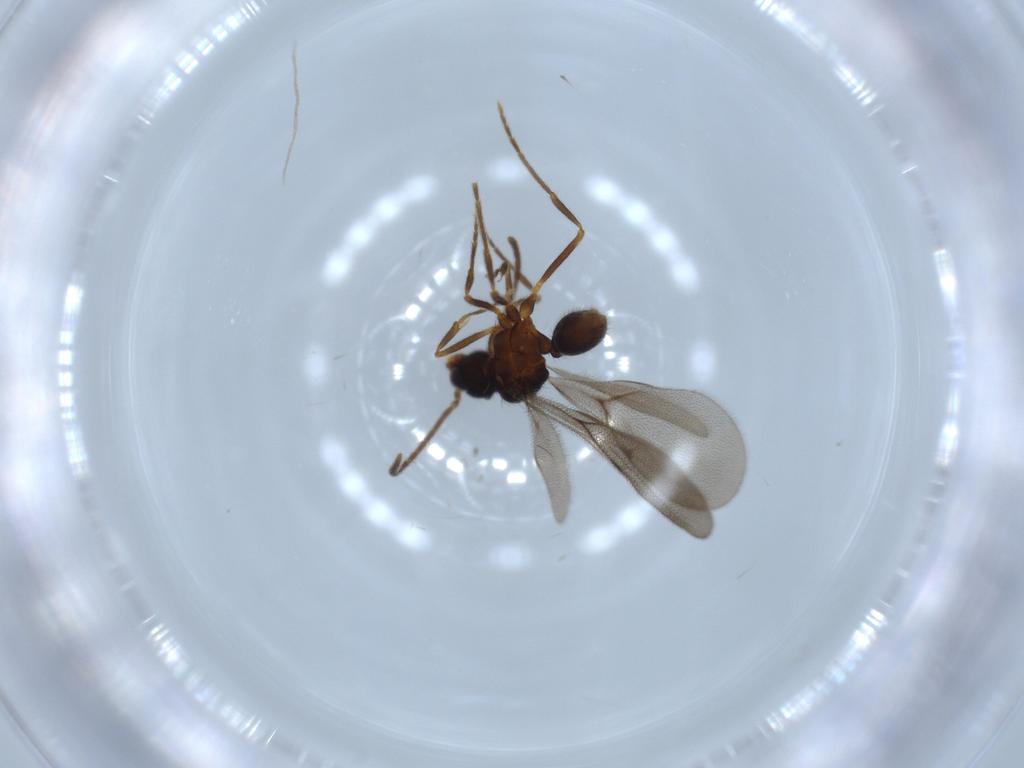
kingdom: Animalia
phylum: Arthropoda
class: Insecta
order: Hymenoptera
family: Formicidae
